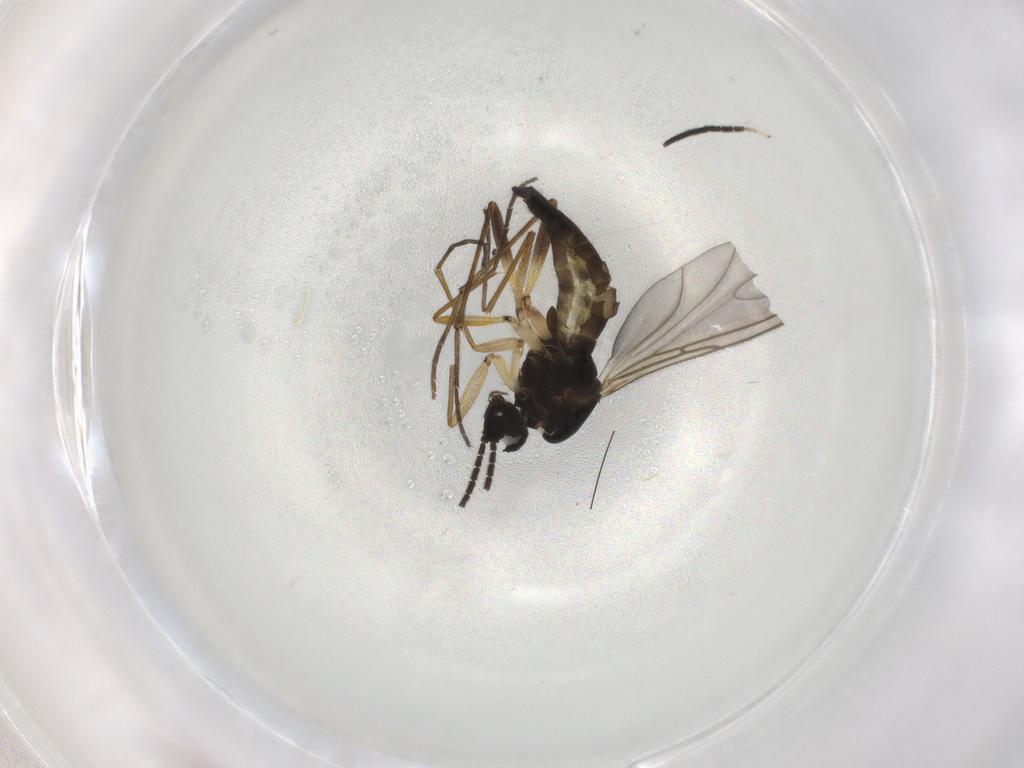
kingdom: Animalia
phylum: Arthropoda
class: Insecta
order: Diptera
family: Sciaridae
